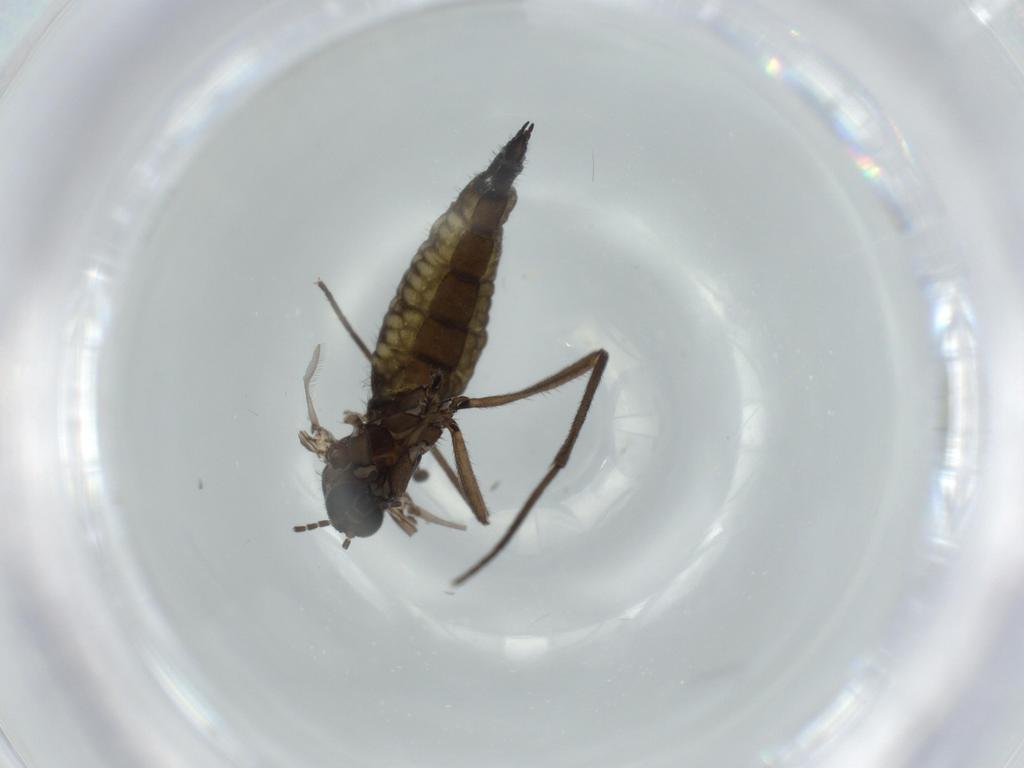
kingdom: Animalia
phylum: Arthropoda
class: Insecta
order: Diptera
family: Sciaridae
